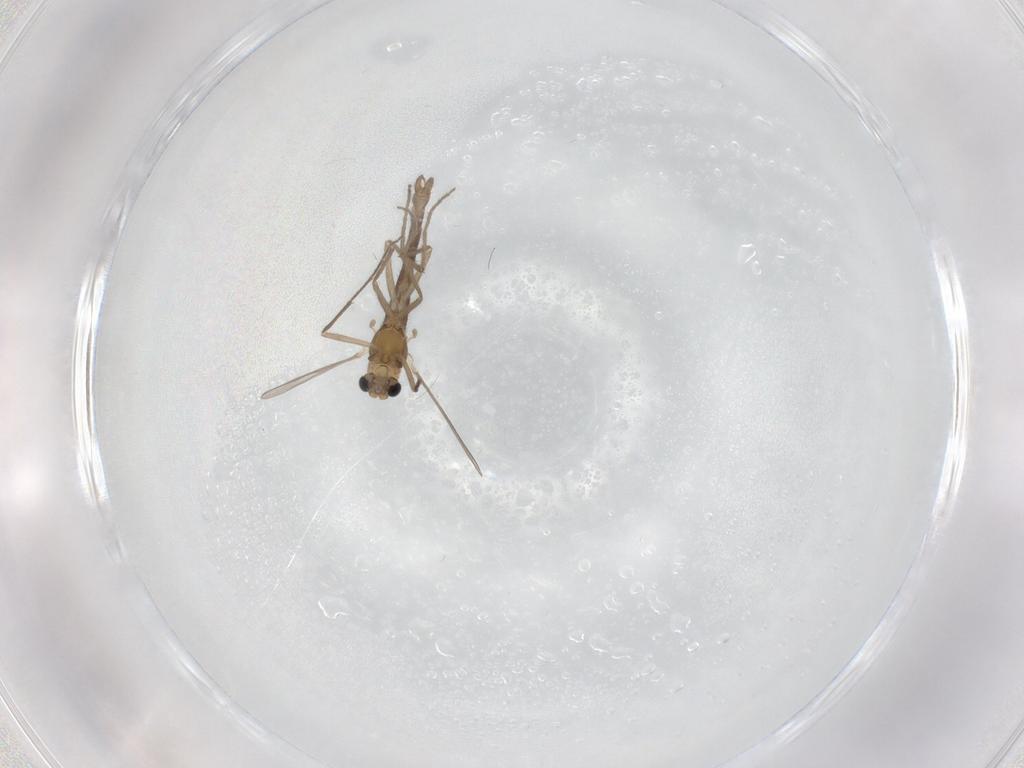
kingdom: Animalia
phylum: Arthropoda
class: Insecta
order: Diptera
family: Chironomidae
